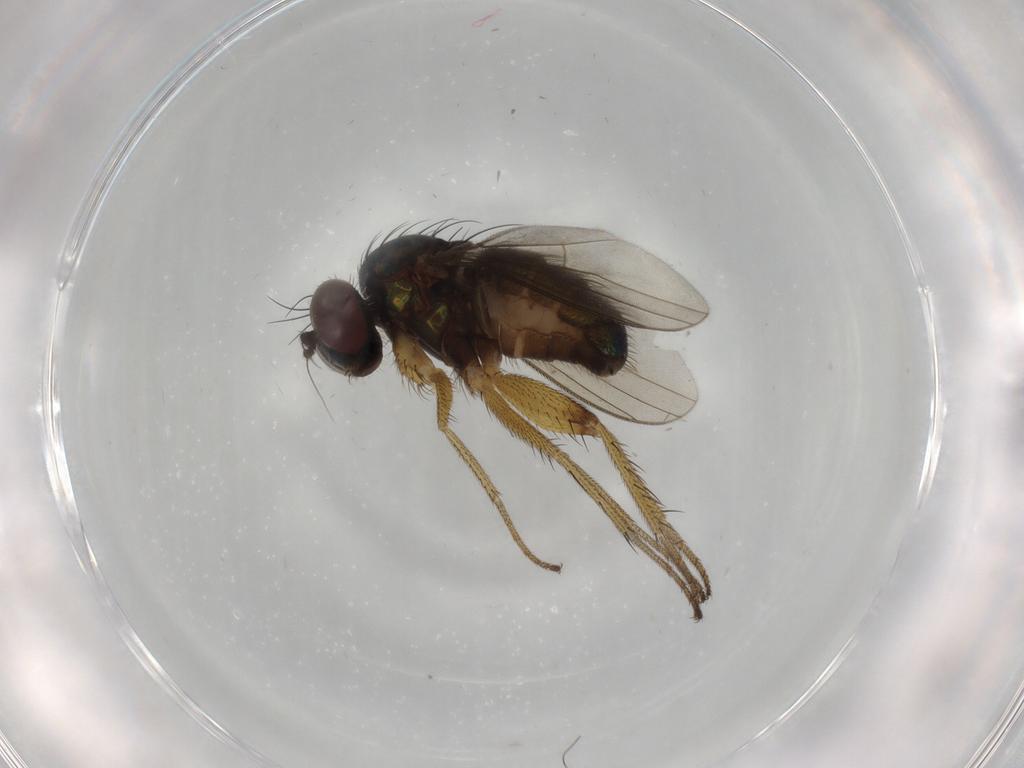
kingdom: Animalia
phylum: Arthropoda
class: Insecta
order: Diptera
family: Dolichopodidae
